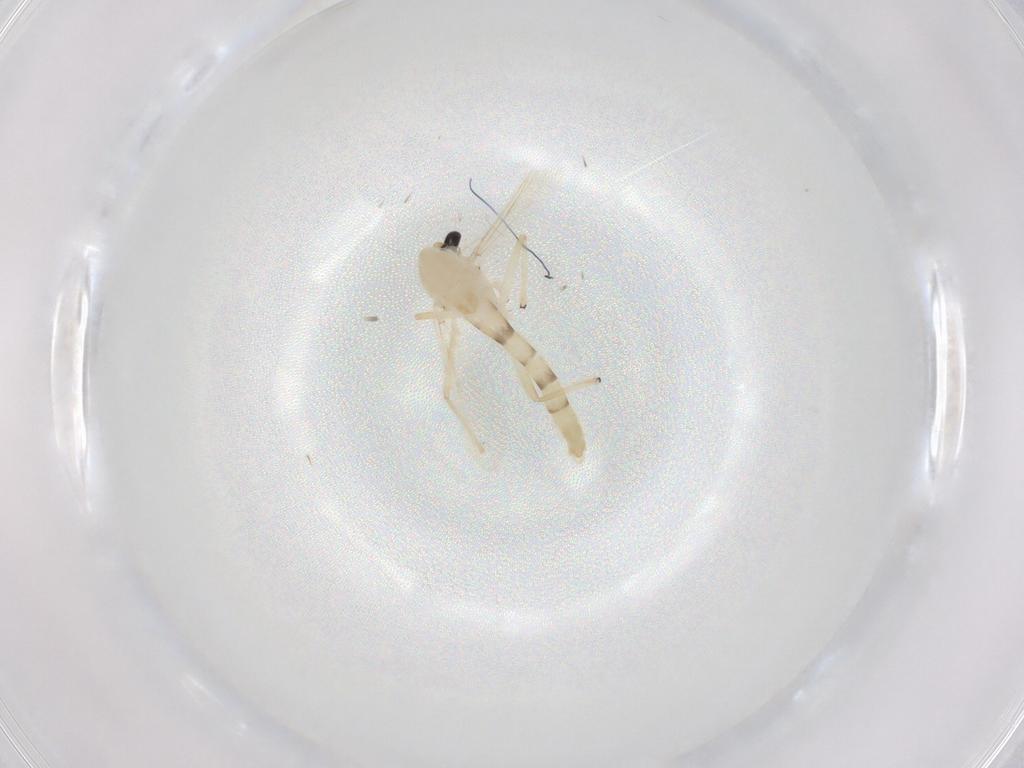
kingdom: Animalia
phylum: Arthropoda
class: Insecta
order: Diptera
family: Chironomidae
